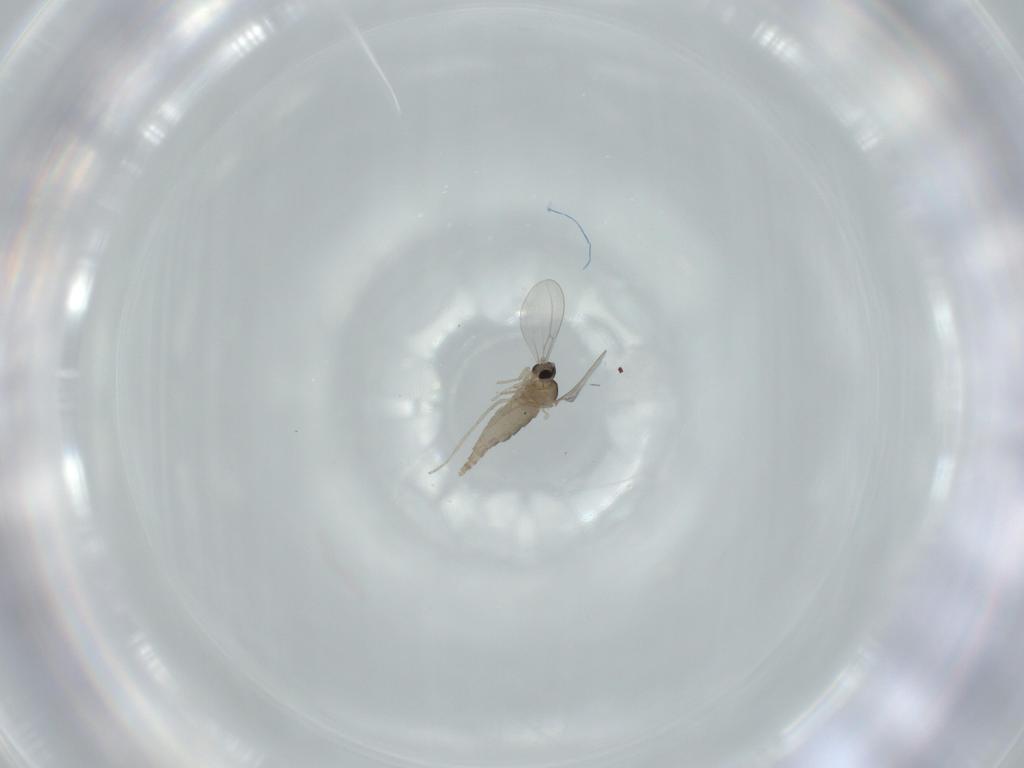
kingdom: Animalia
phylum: Arthropoda
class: Insecta
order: Diptera
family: Cecidomyiidae
